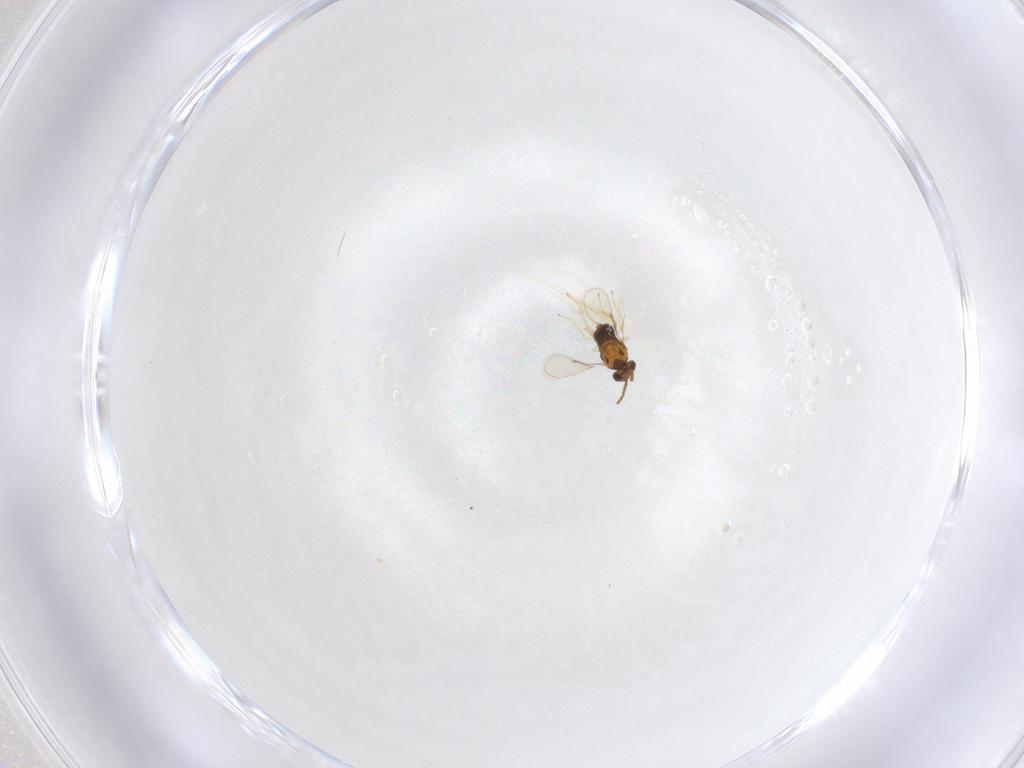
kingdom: Animalia
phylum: Arthropoda
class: Insecta
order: Hymenoptera
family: Aphelinidae
